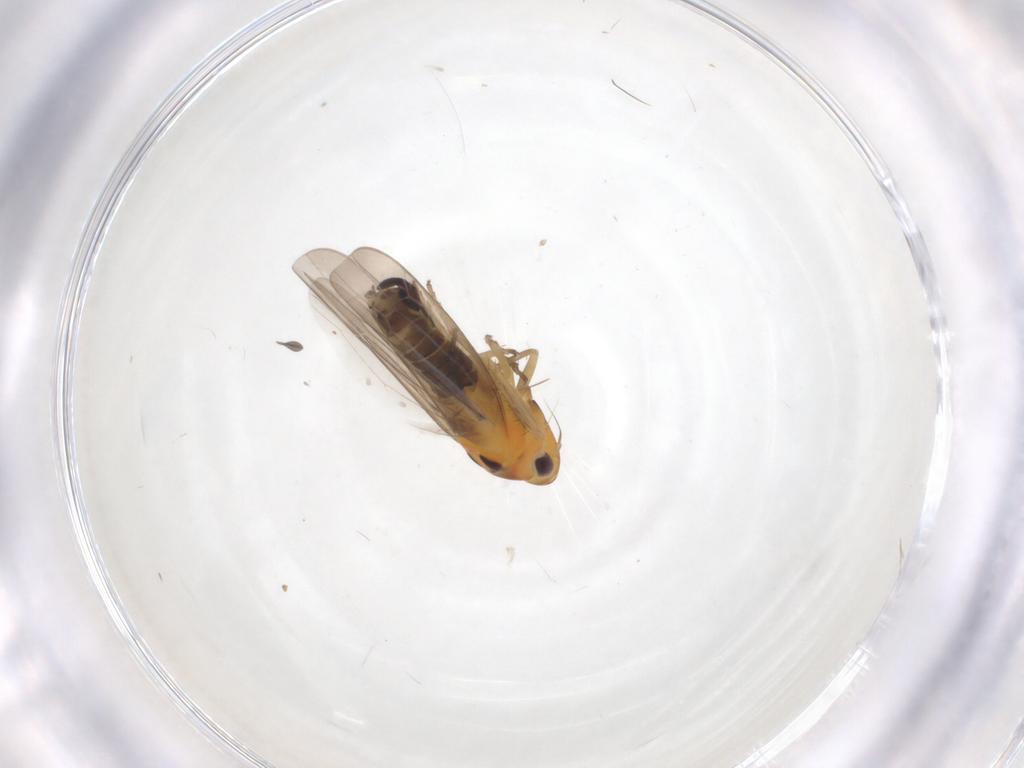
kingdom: Animalia
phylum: Arthropoda
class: Insecta
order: Hemiptera
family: Cicadellidae
